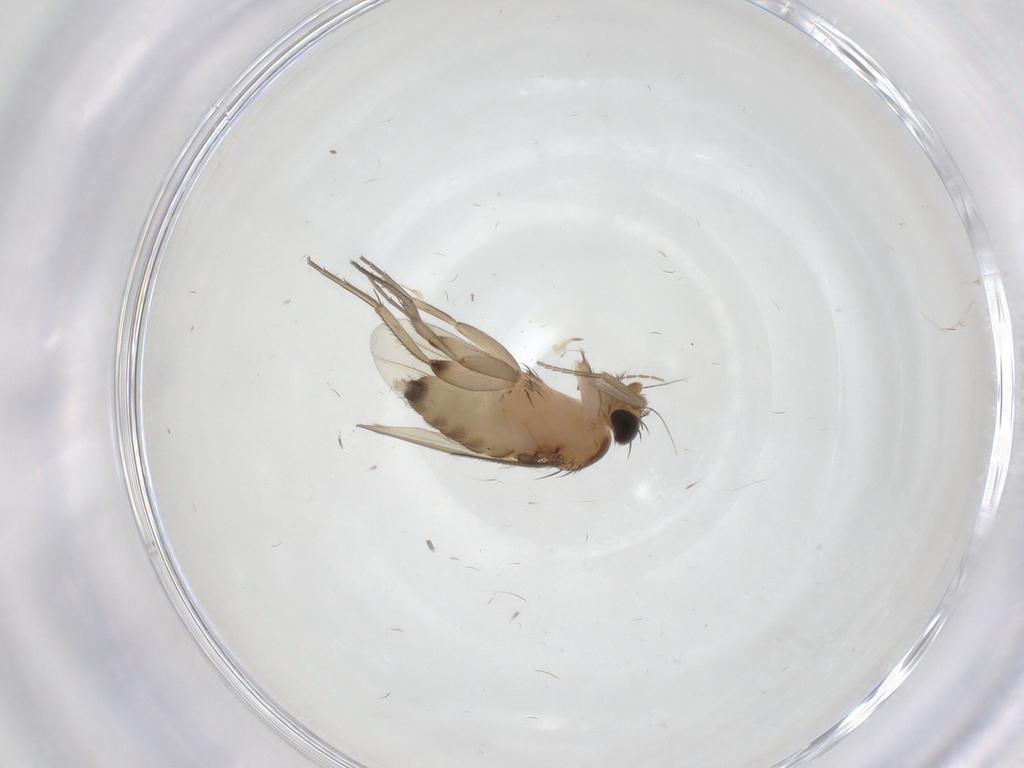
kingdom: Animalia
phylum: Arthropoda
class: Insecta
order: Diptera
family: Phoridae
